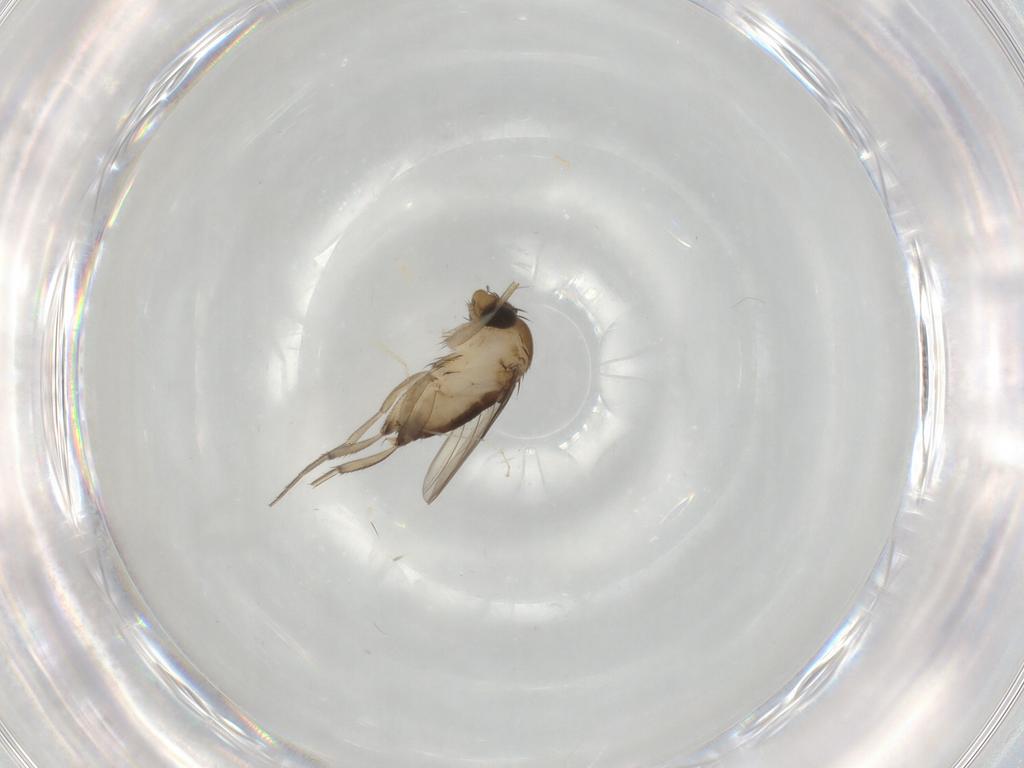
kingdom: Animalia
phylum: Arthropoda
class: Insecta
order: Diptera
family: Phoridae
